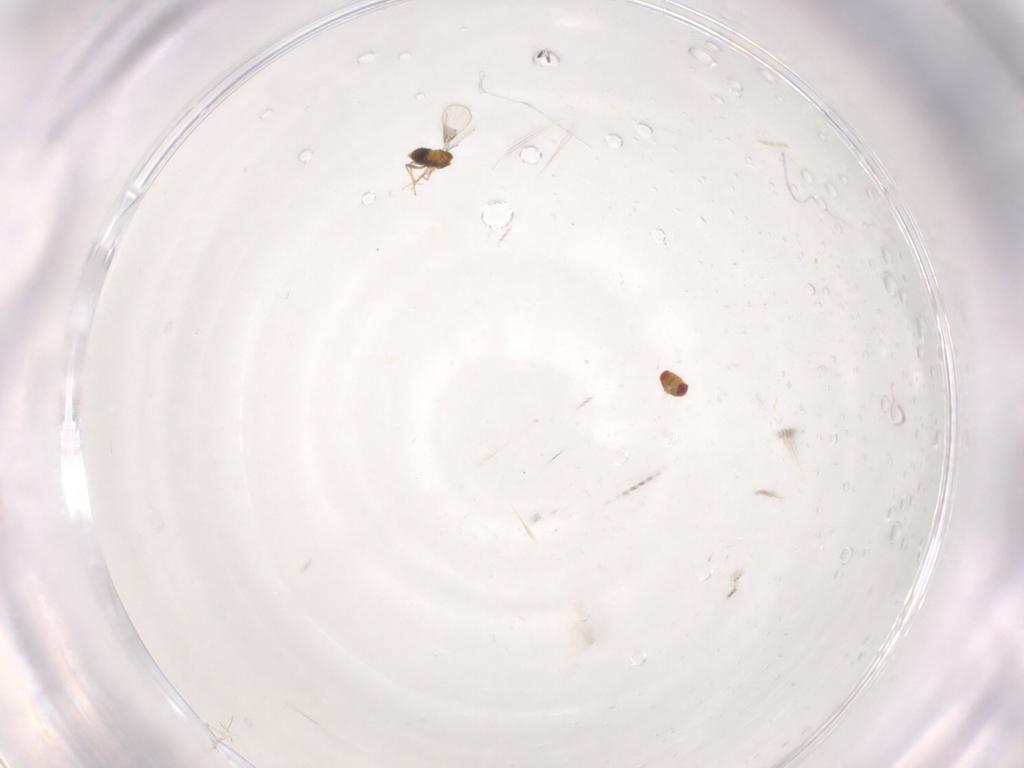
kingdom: Animalia
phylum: Arthropoda
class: Insecta
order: Hymenoptera
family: Trichogrammatidae
